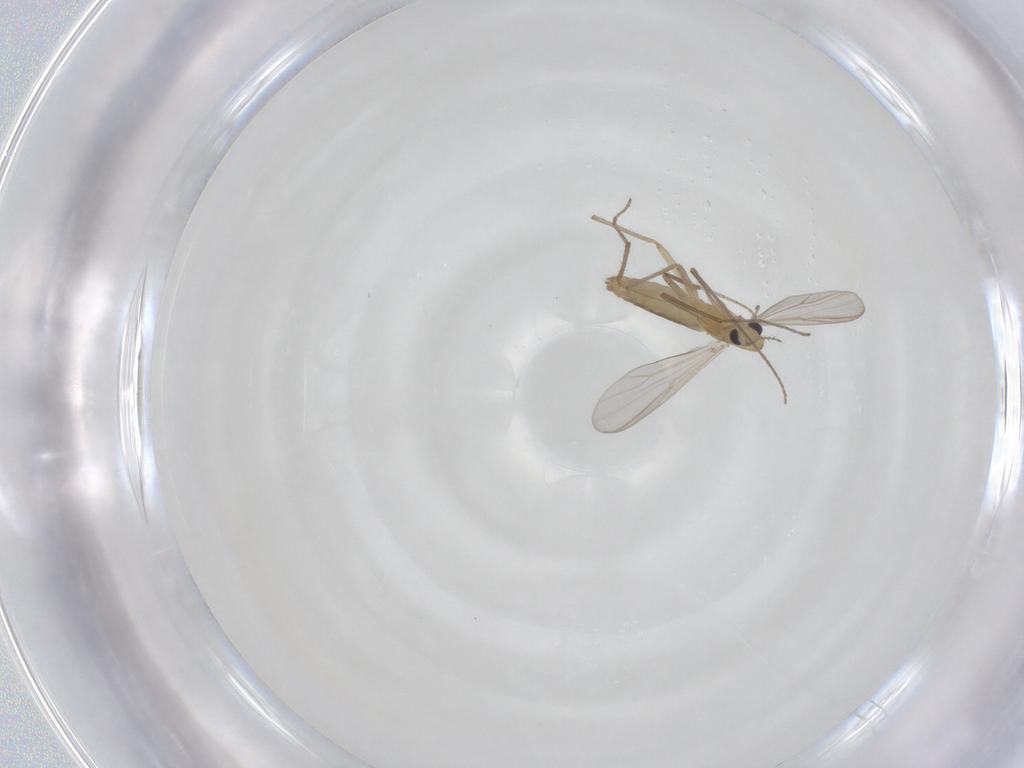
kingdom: Animalia
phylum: Arthropoda
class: Insecta
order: Diptera
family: Chironomidae
